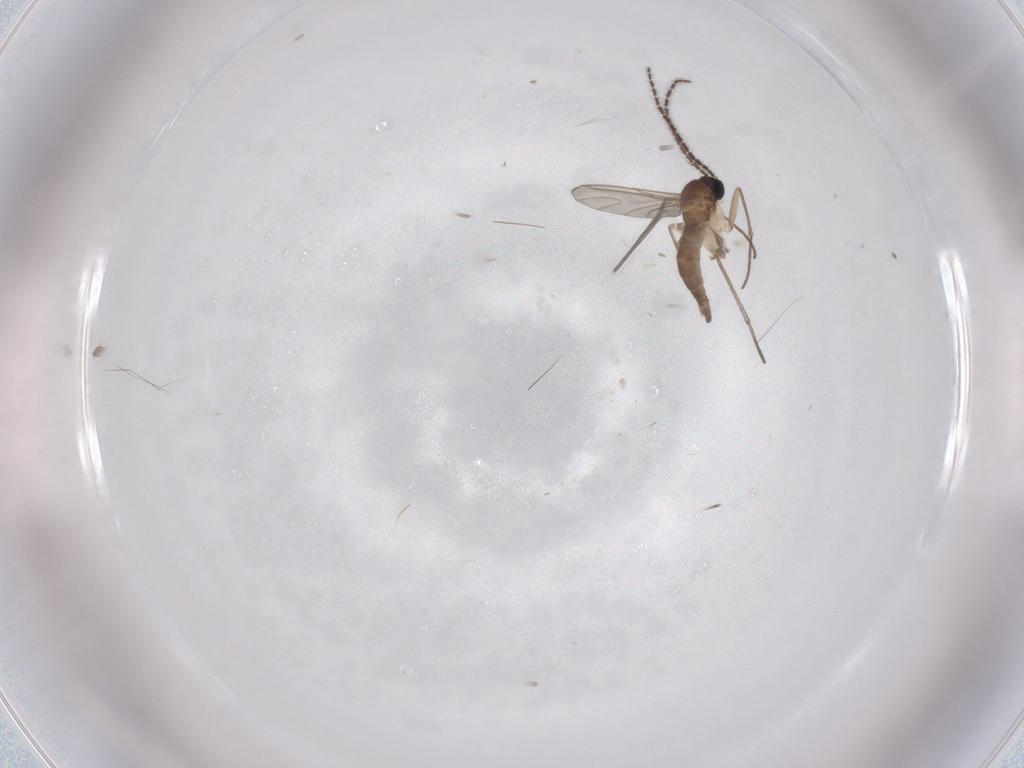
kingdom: Animalia
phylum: Arthropoda
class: Insecta
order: Diptera
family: Sciaridae
